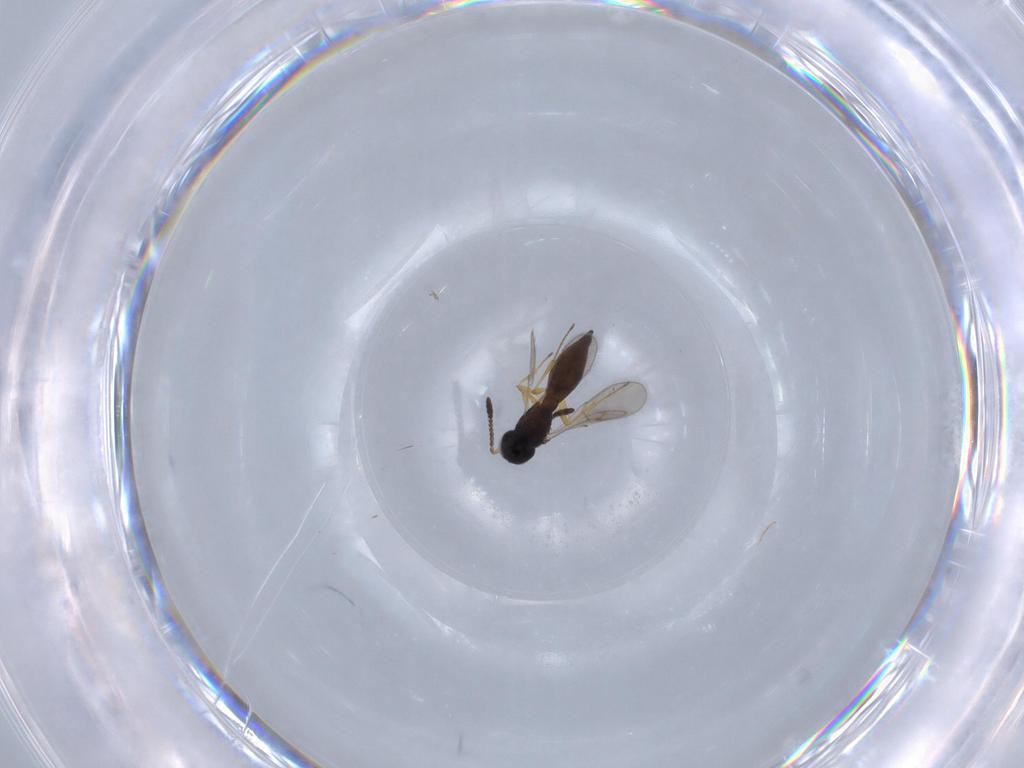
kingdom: Animalia
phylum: Arthropoda
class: Insecta
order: Hymenoptera
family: Scelionidae
